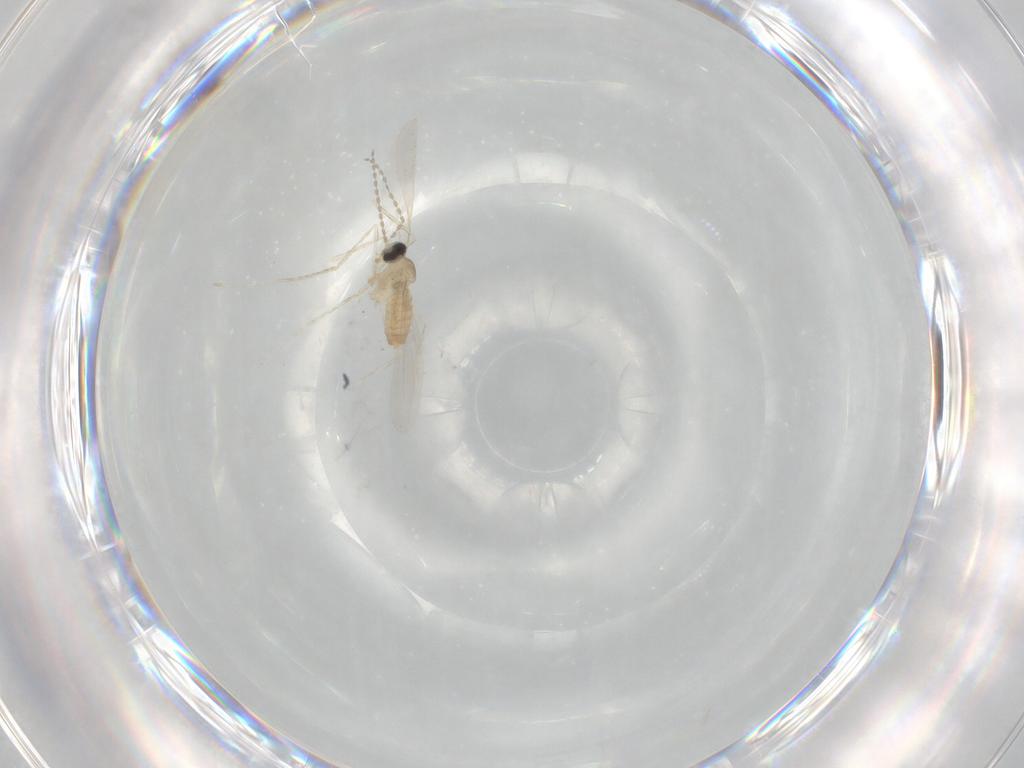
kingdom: Animalia
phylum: Arthropoda
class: Insecta
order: Diptera
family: Cecidomyiidae
